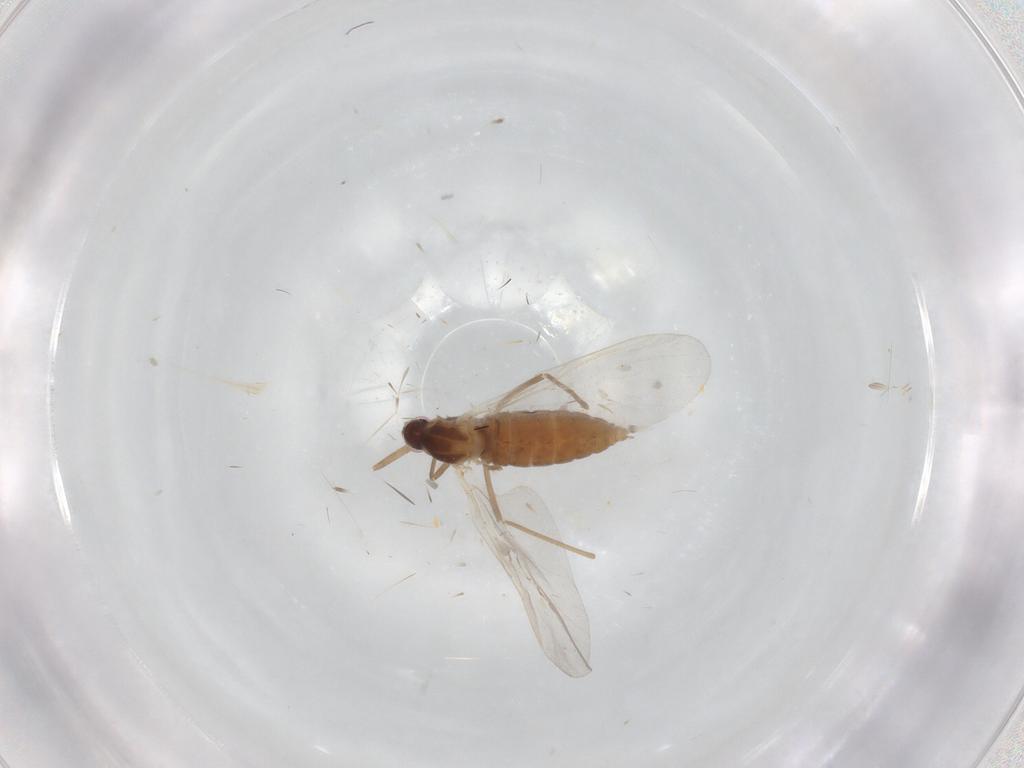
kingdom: Animalia
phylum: Arthropoda
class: Insecta
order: Diptera
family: Cecidomyiidae
